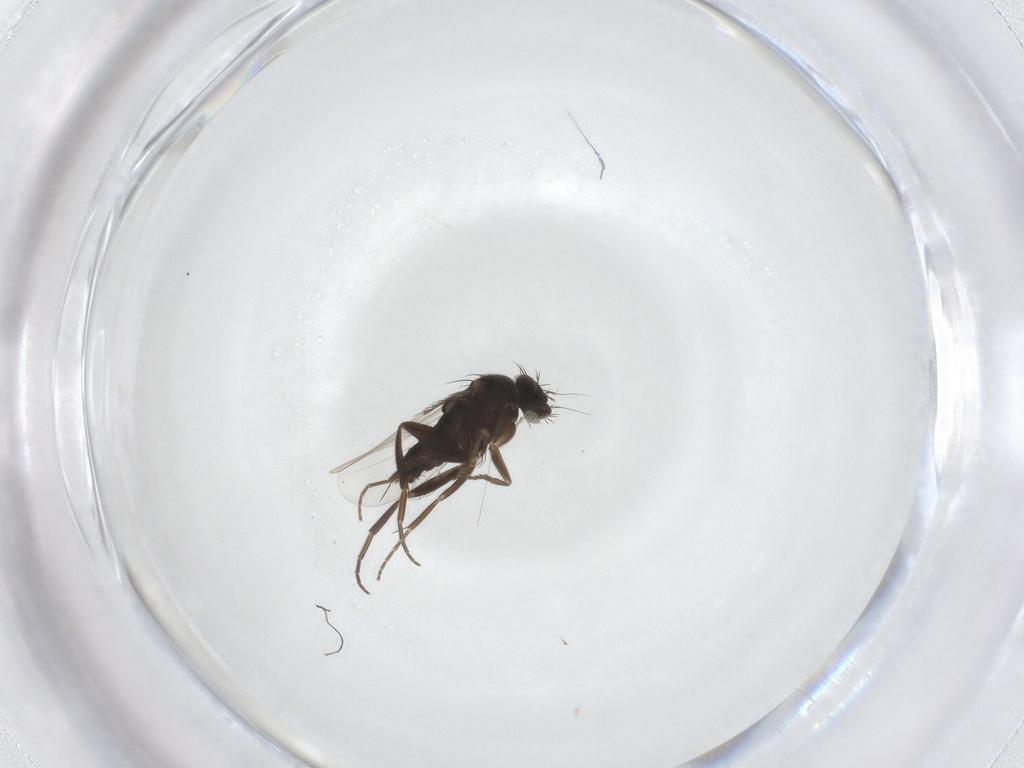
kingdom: Animalia
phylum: Arthropoda
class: Insecta
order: Diptera
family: Phoridae
